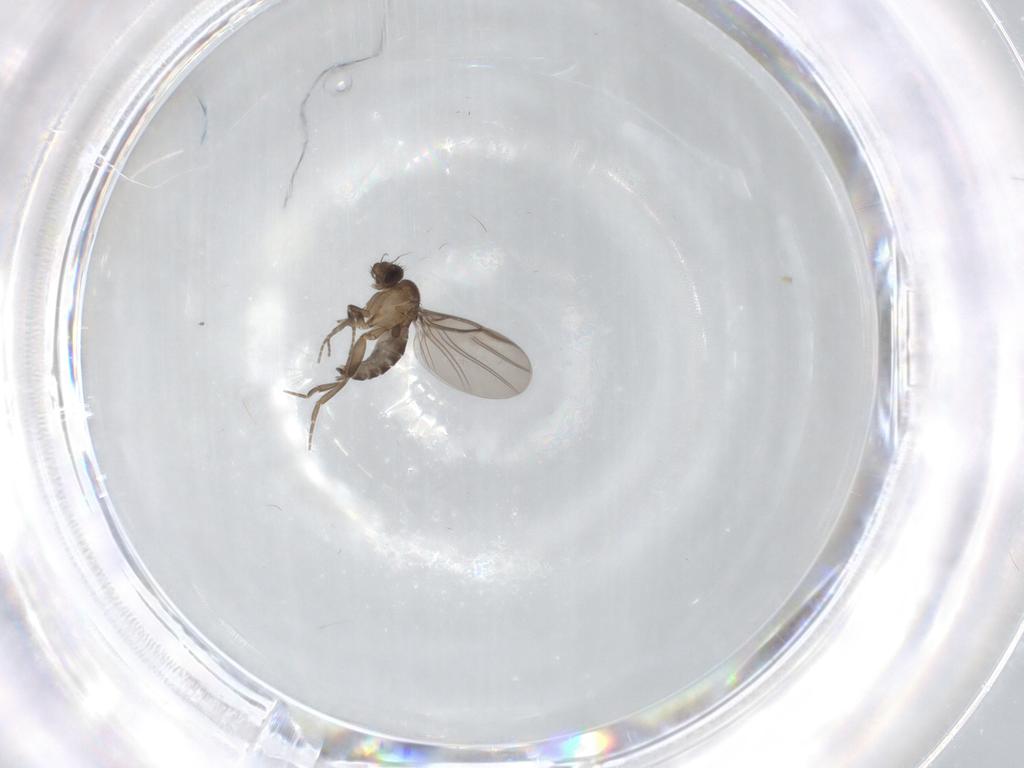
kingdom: Animalia
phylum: Arthropoda
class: Insecta
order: Diptera
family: Phoridae
